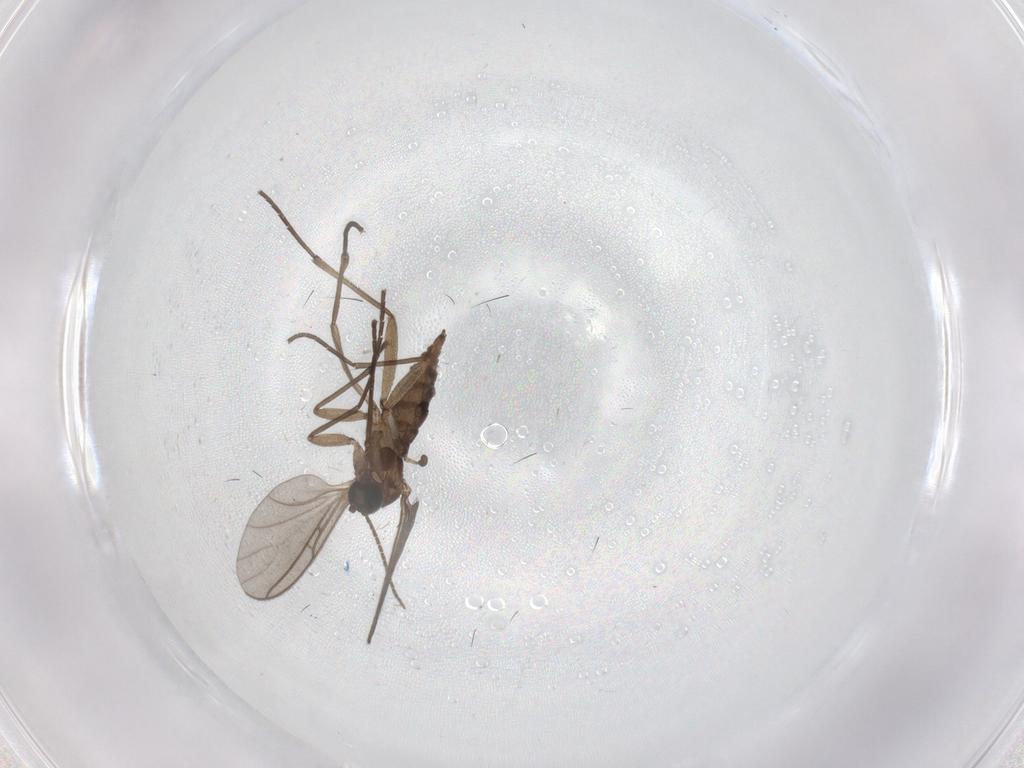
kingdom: Animalia
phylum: Arthropoda
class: Insecta
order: Diptera
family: Sciaridae
